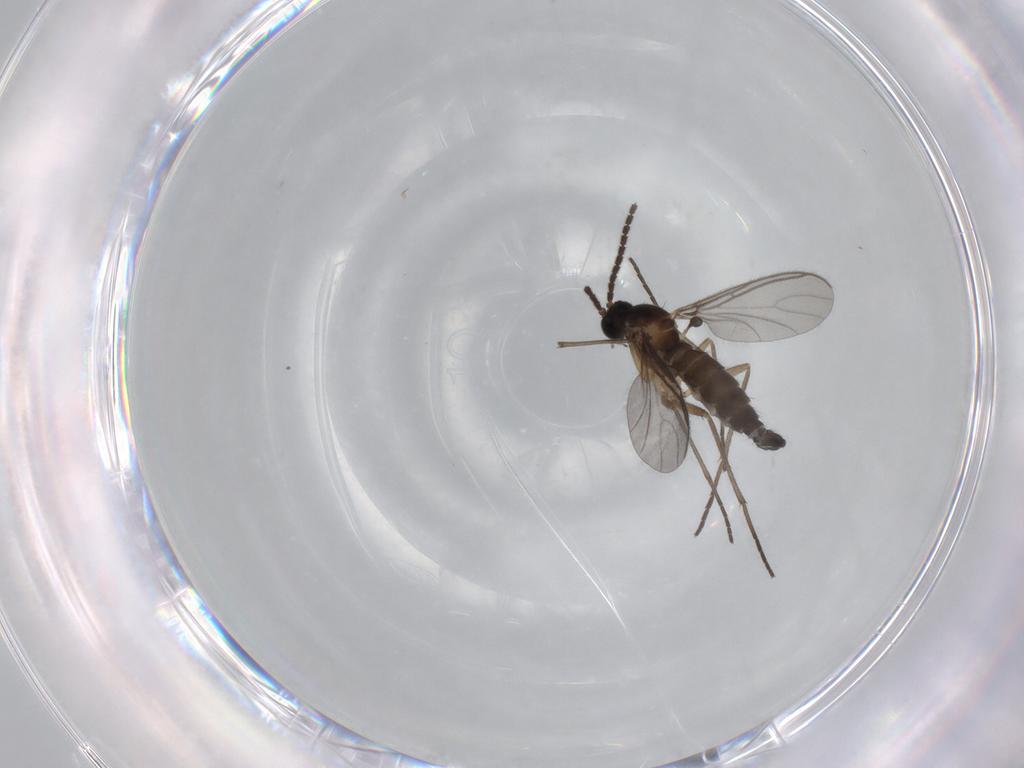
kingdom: Animalia
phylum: Arthropoda
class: Insecta
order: Diptera
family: Sciaridae
